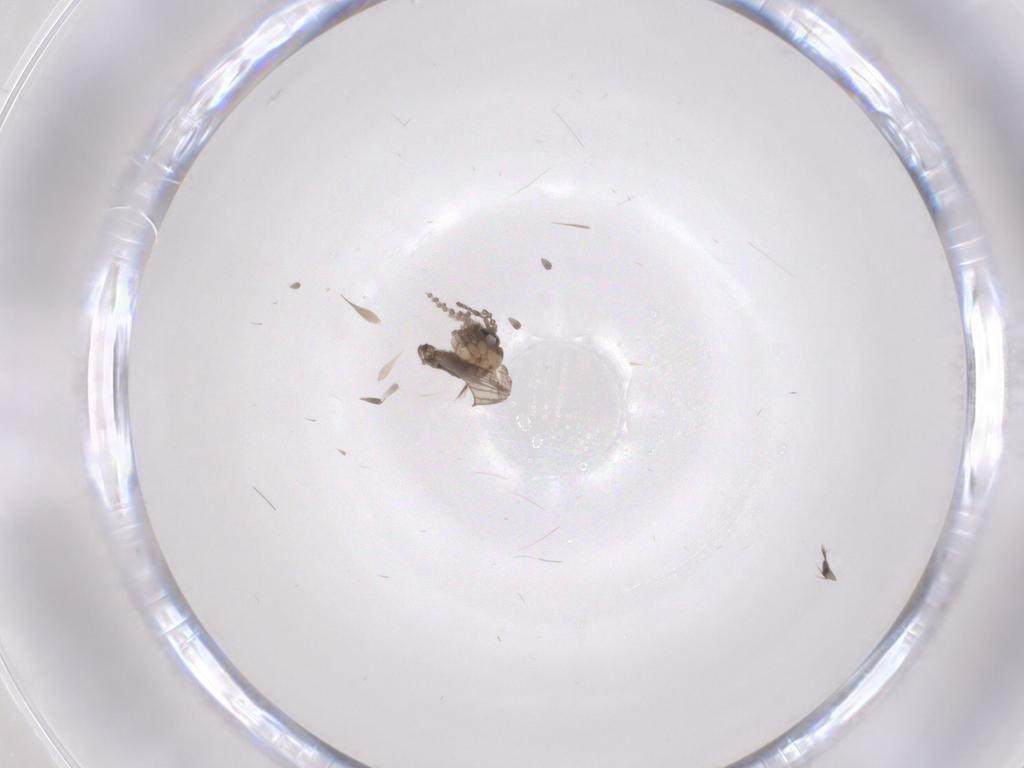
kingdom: Animalia
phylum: Arthropoda
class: Insecta
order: Diptera
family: Psychodidae
